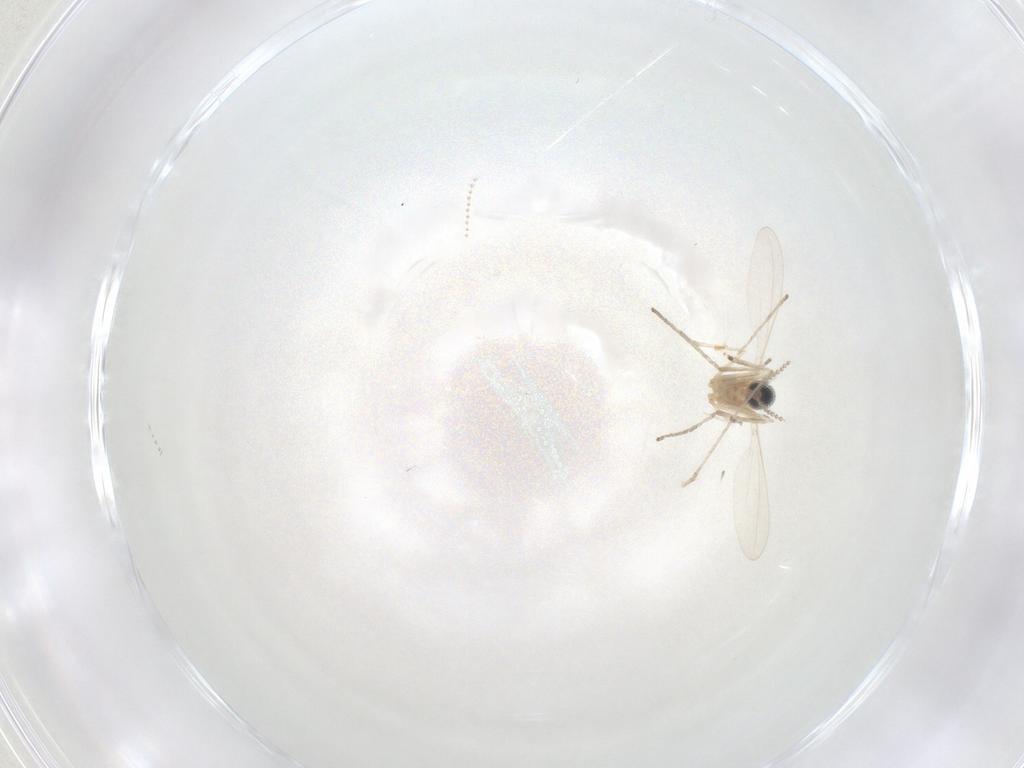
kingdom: Animalia
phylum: Arthropoda
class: Insecta
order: Diptera
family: Cecidomyiidae
